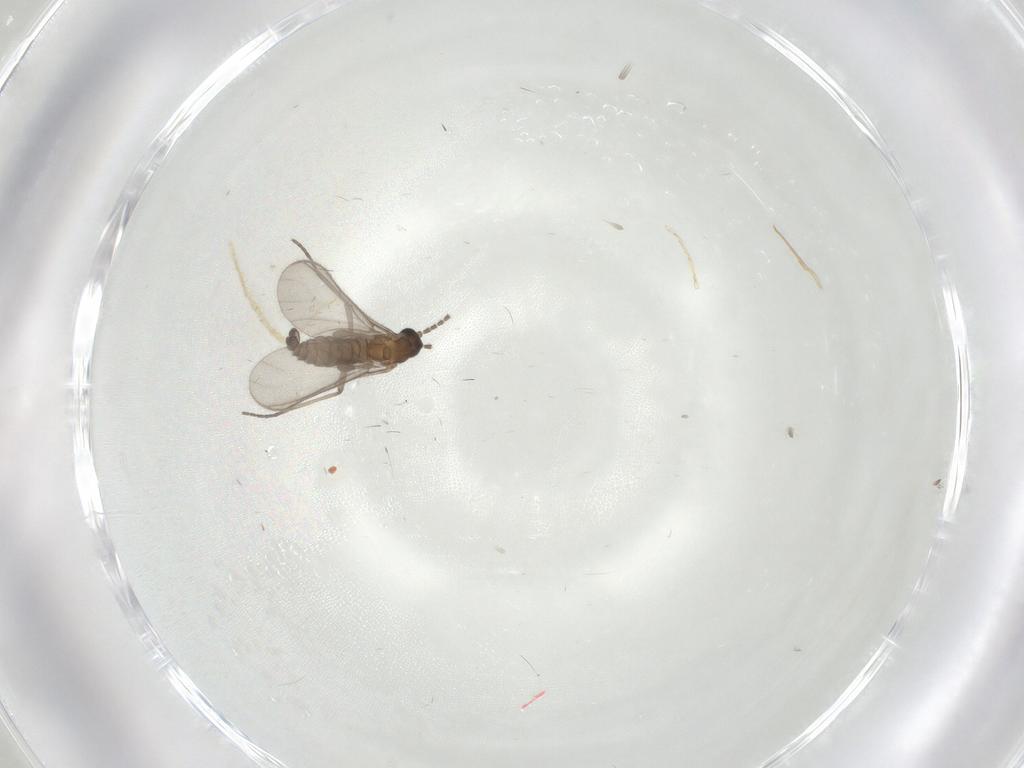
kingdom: Animalia
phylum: Arthropoda
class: Insecta
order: Diptera
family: Sciaridae
